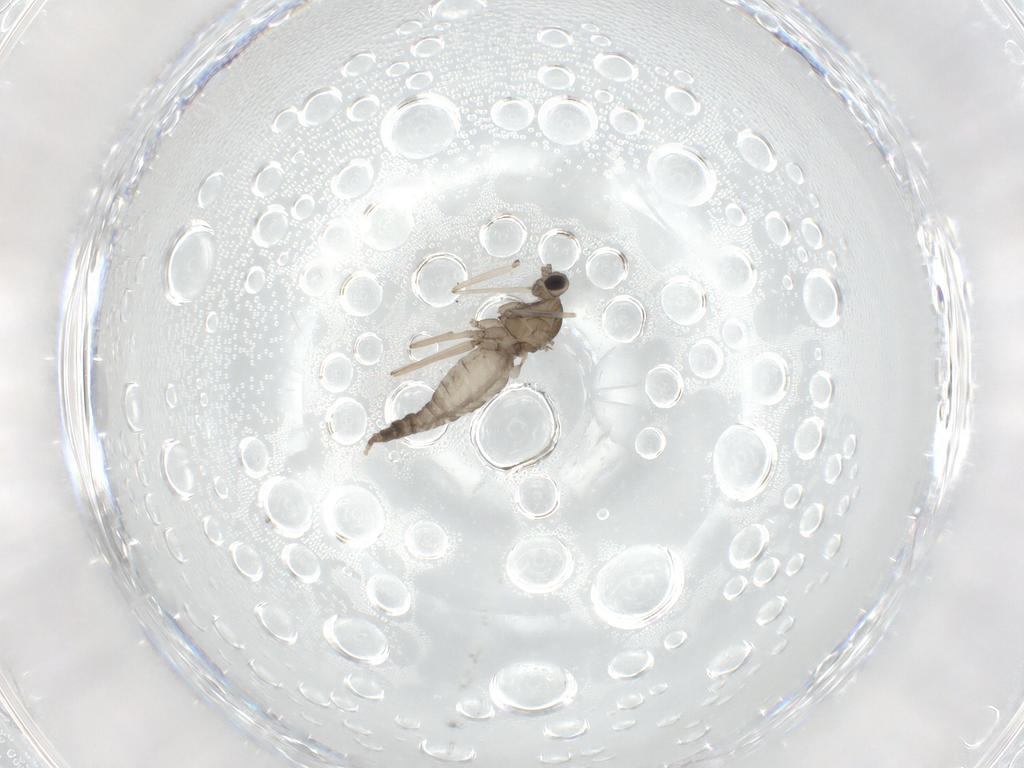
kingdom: Animalia
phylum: Arthropoda
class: Insecta
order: Diptera
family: Cecidomyiidae
